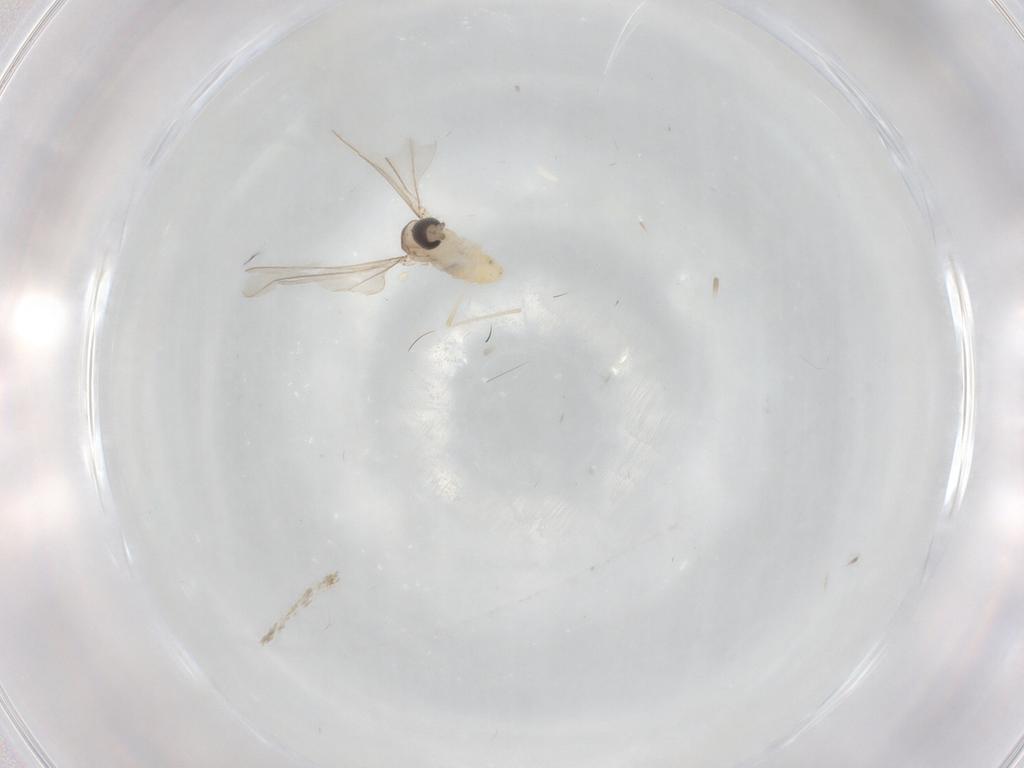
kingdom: Animalia
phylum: Arthropoda
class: Insecta
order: Diptera
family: Cecidomyiidae
